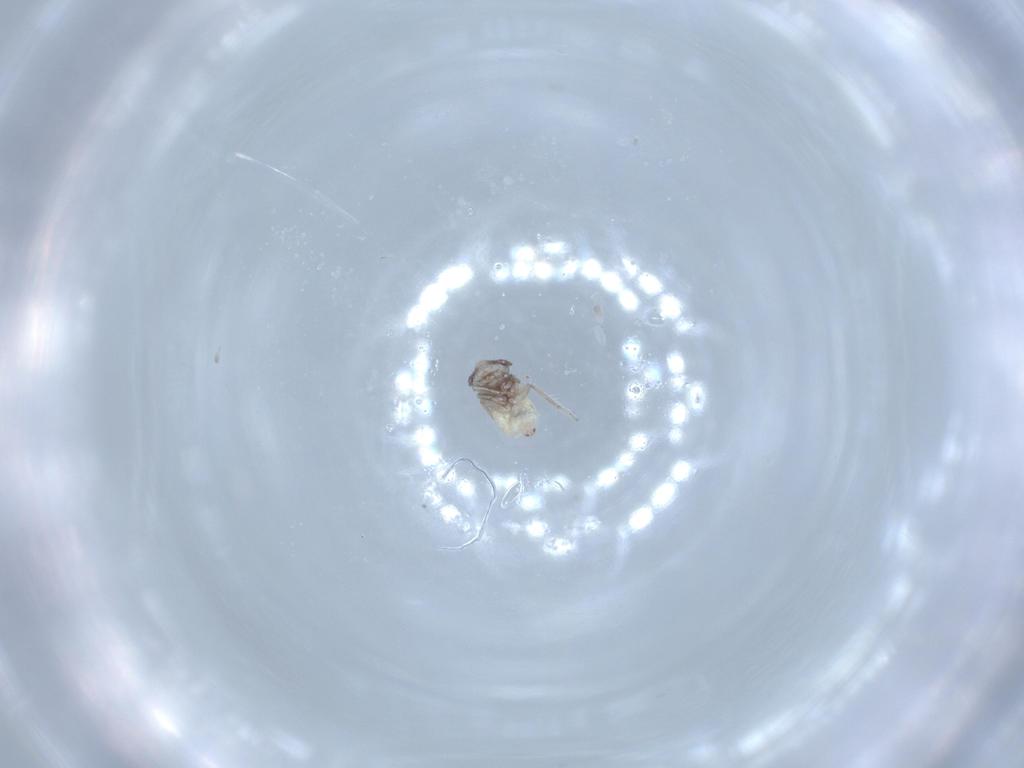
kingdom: Animalia
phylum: Arthropoda
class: Insecta
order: Psocodea
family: Lepidopsocidae
